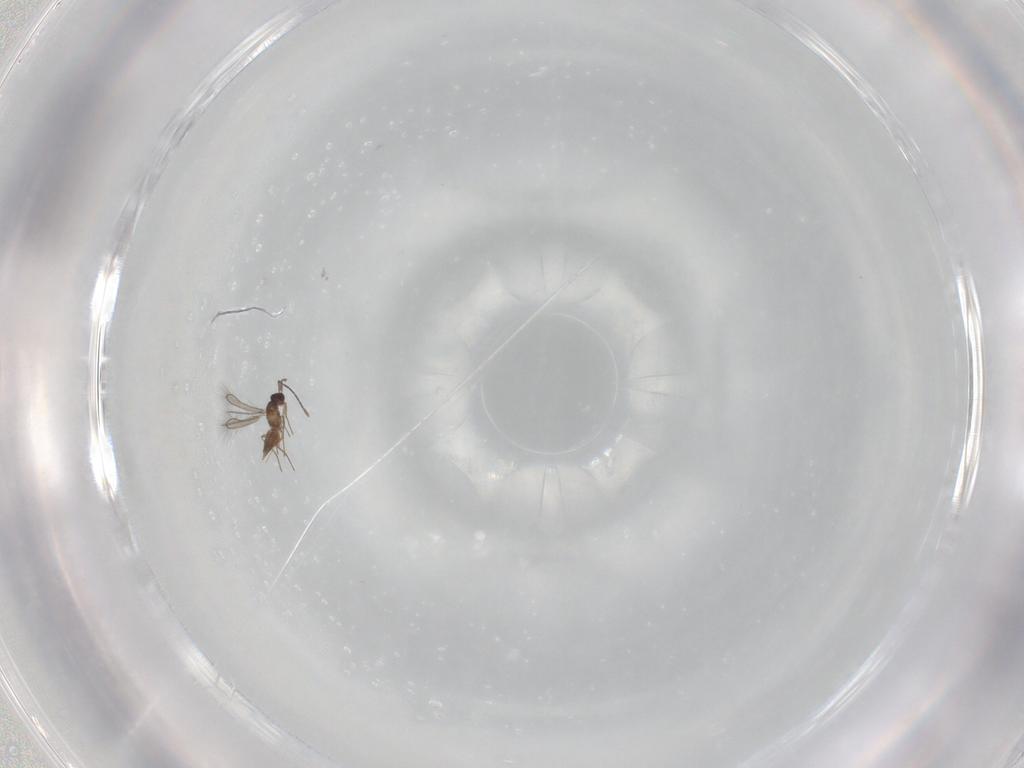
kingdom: Animalia
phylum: Arthropoda
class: Insecta
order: Hymenoptera
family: Mymaridae
